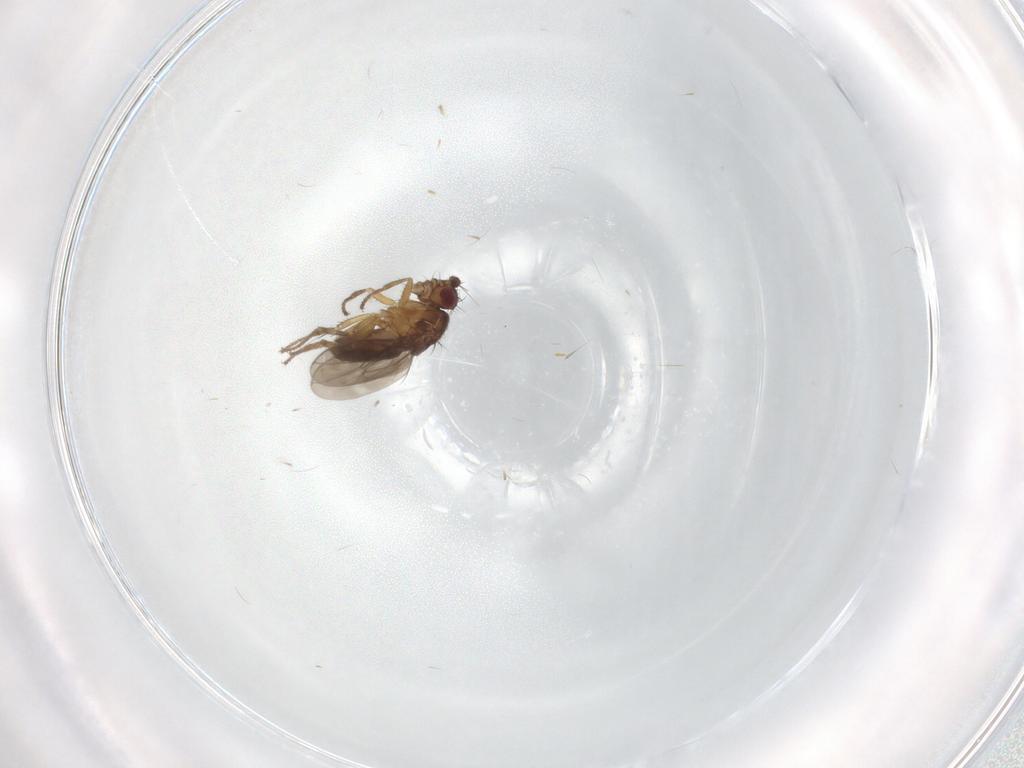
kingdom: Animalia
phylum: Arthropoda
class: Insecta
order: Diptera
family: Sphaeroceridae
